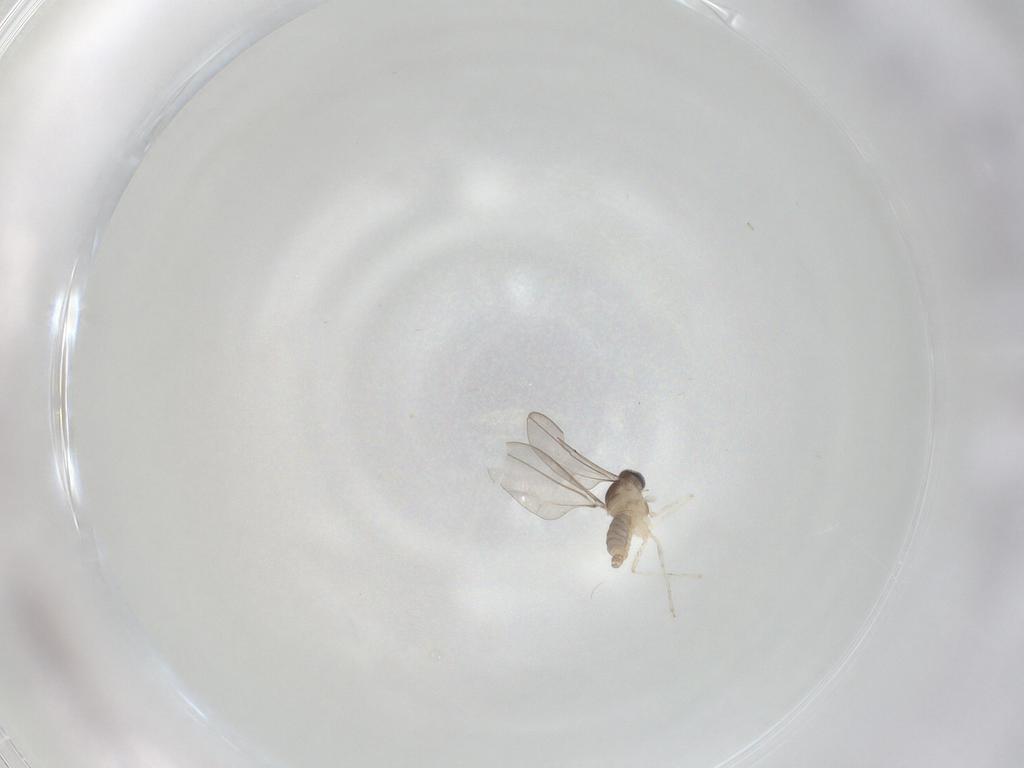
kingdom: Animalia
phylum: Arthropoda
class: Insecta
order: Diptera
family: Cecidomyiidae
